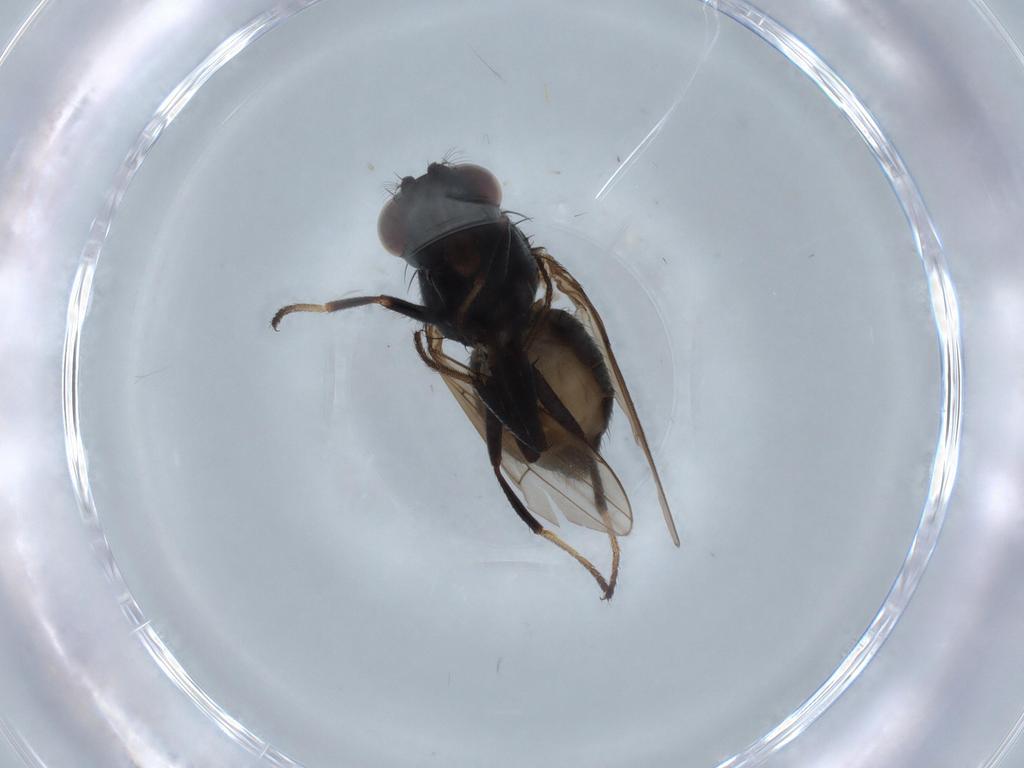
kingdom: Animalia
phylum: Arthropoda
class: Insecta
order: Diptera
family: Ephydridae
